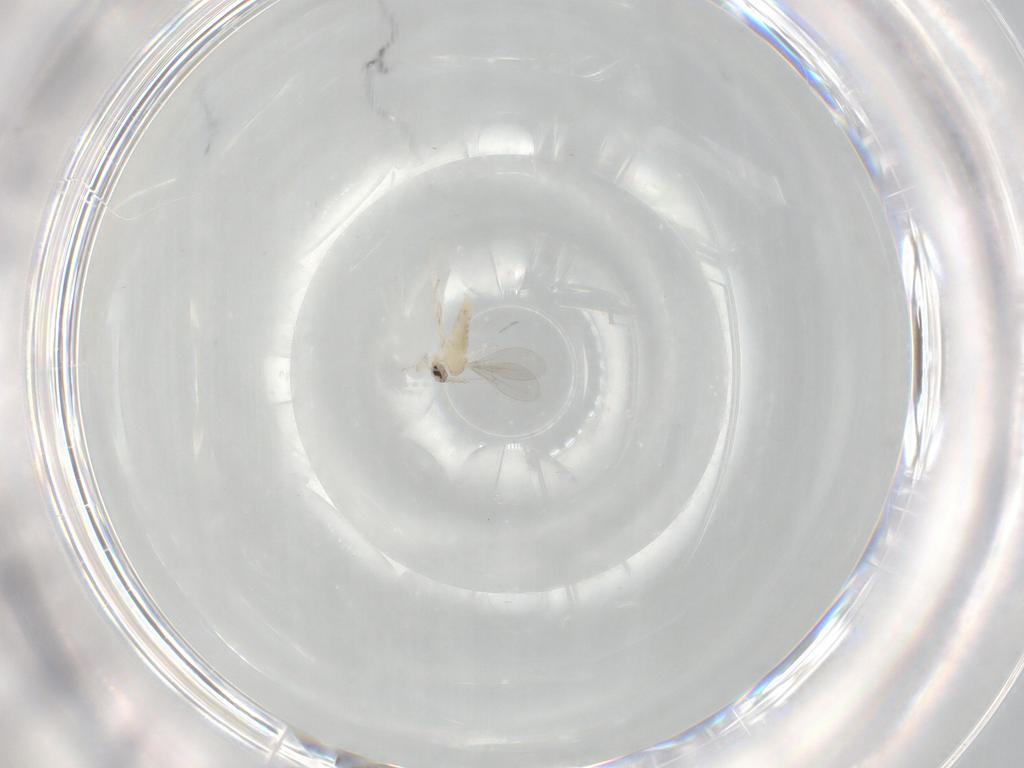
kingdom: Animalia
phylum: Arthropoda
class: Insecta
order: Diptera
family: Cecidomyiidae
